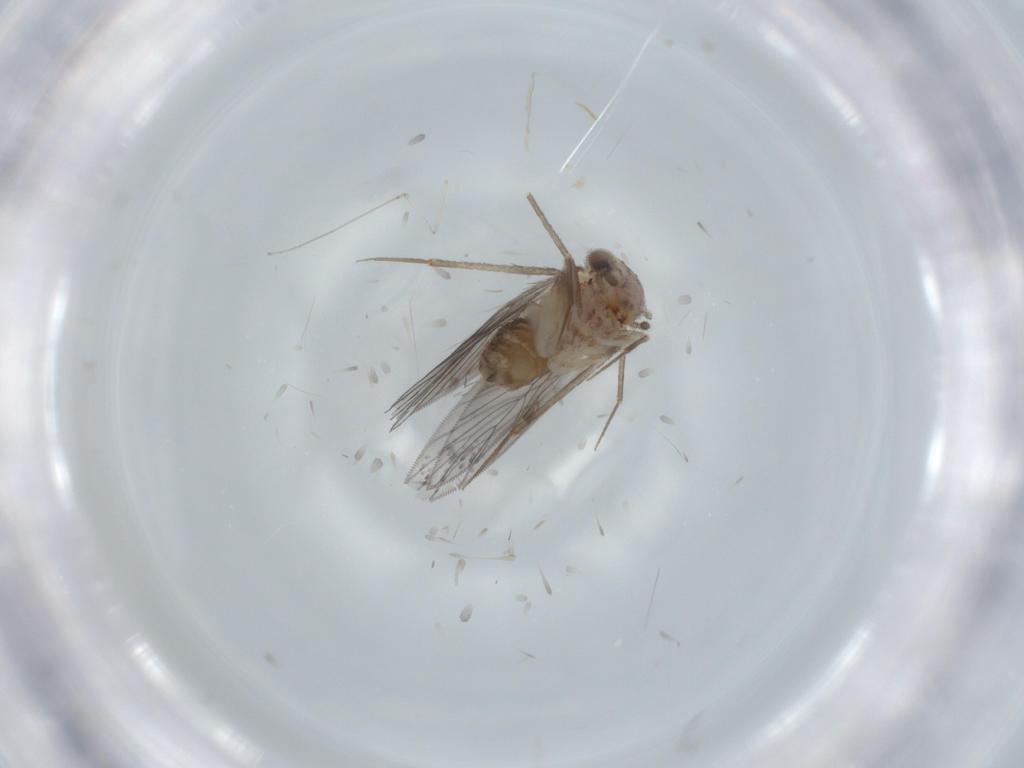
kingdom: Animalia
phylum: Arthropoda
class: Insecta
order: Psocodea
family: Lepidopsocidae
